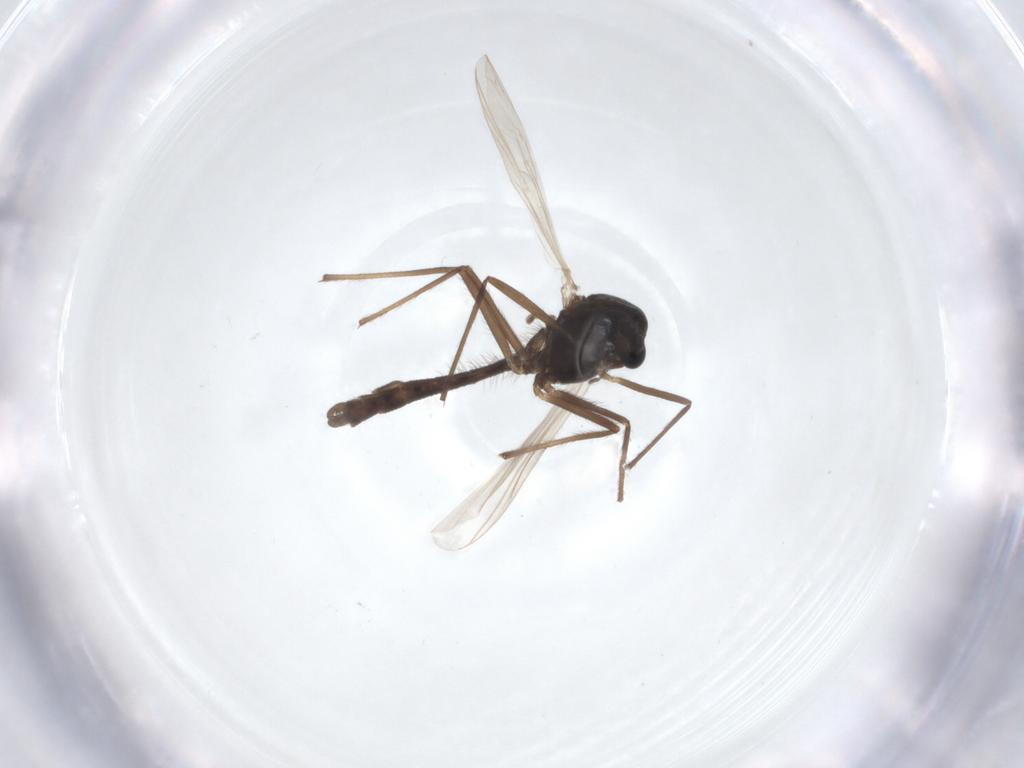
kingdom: Animalia
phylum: Arthropoda
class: Insecta
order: Diptera
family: Chironomidae
